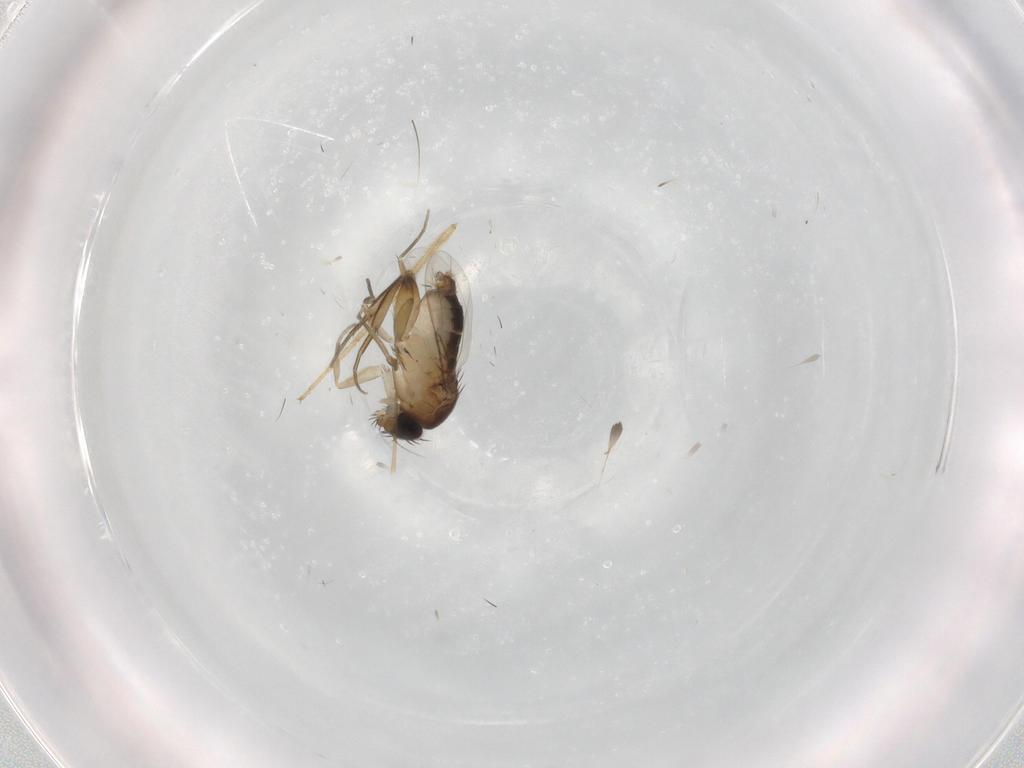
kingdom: Animalia
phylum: Arthropoda
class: Insecta
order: Diptera
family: Phoridae
